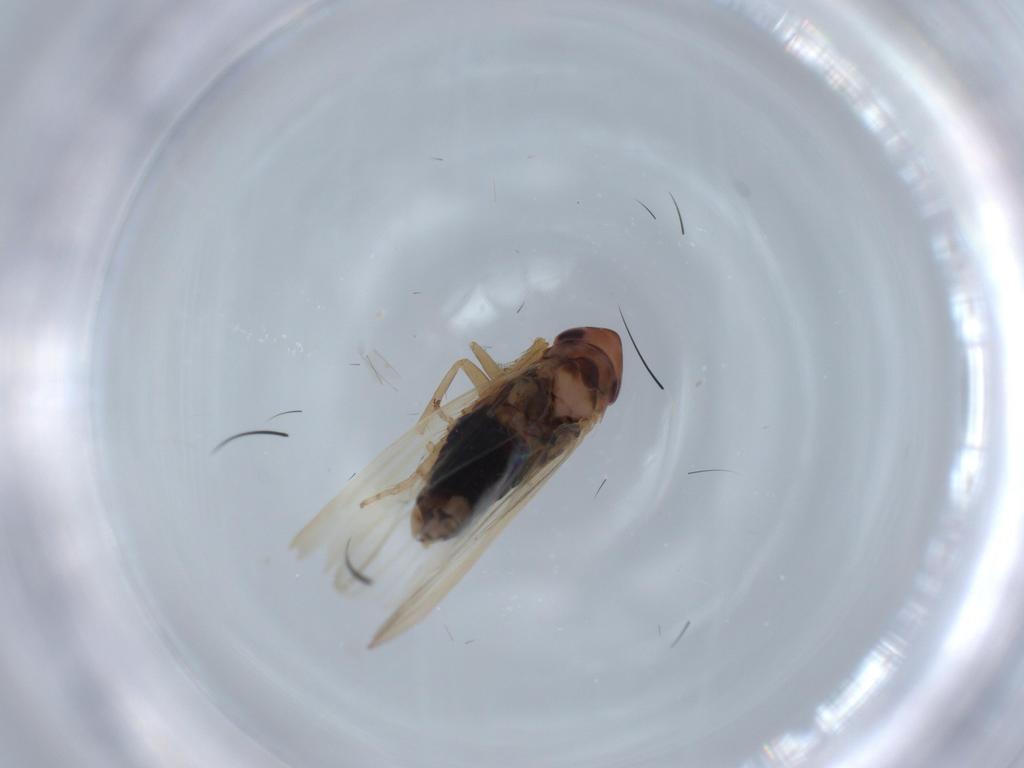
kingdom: Animalia
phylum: Arthropoda
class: Insecta
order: Hemiptera
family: Cicadellidae
